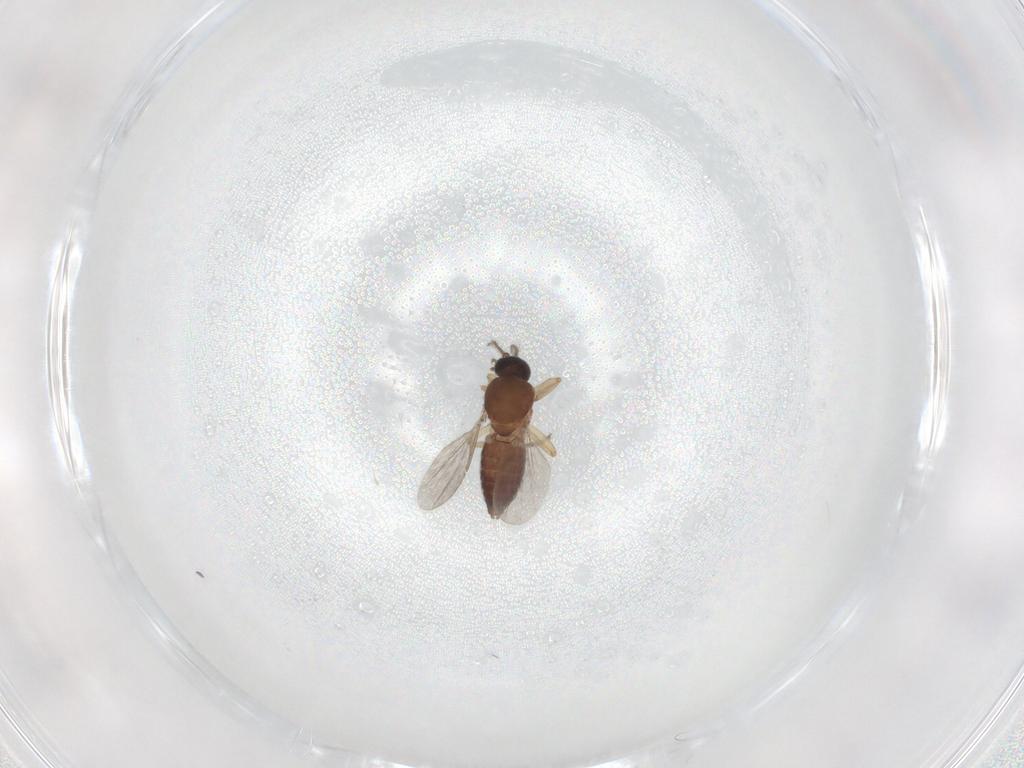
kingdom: Animalia
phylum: Arthropoda
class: Insecta
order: Diptera
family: Ceratopogonidae
